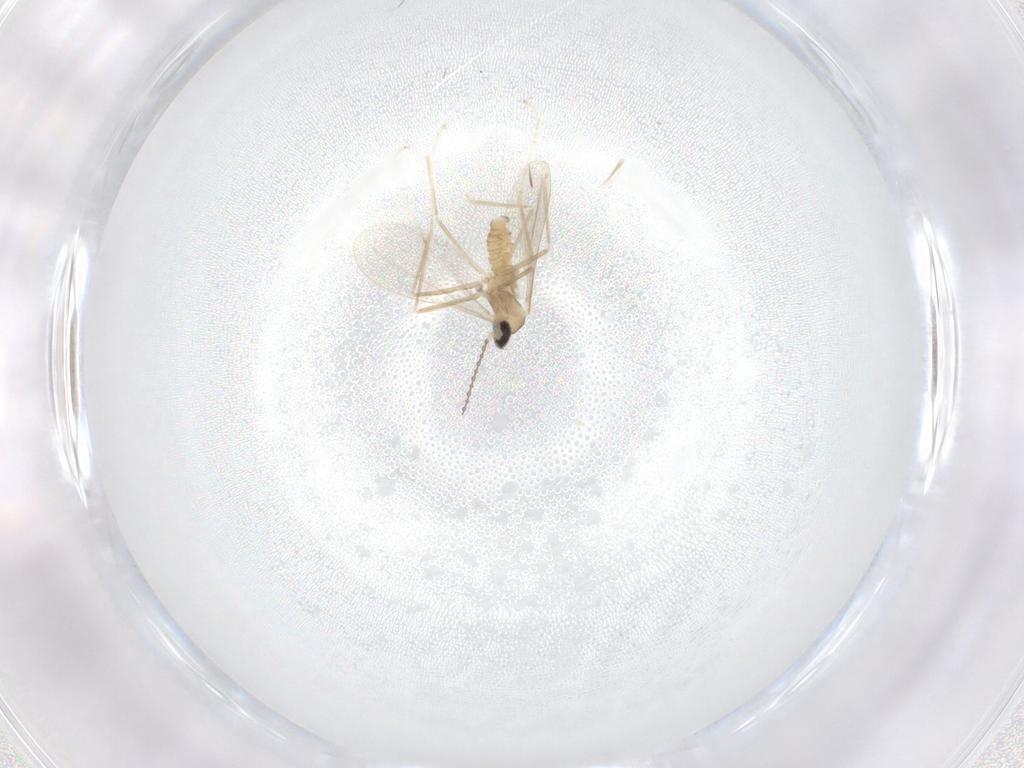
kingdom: Animalia
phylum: Arthropoda
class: Insecta
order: Diptera
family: Cecidomyiidae
